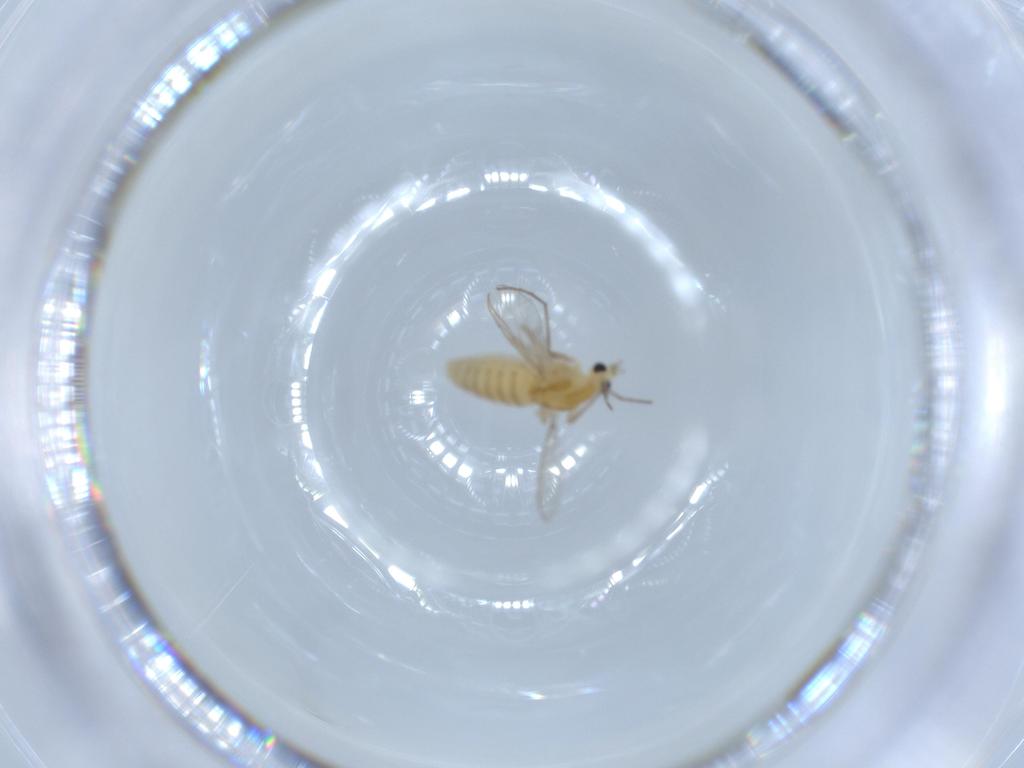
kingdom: Animalia
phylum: Arthropoda
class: Insecta
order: Diptera
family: Chironomidae
